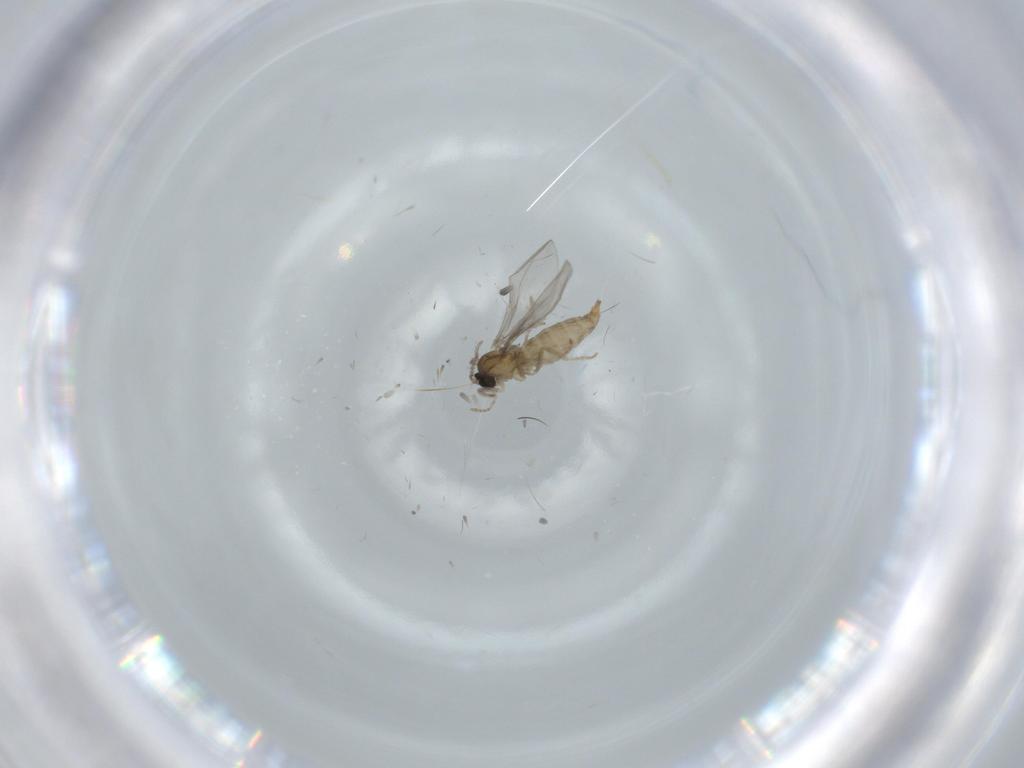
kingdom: Animalia
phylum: Arthropoda
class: Insecta
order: Diptera
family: Cecidomyiidae
